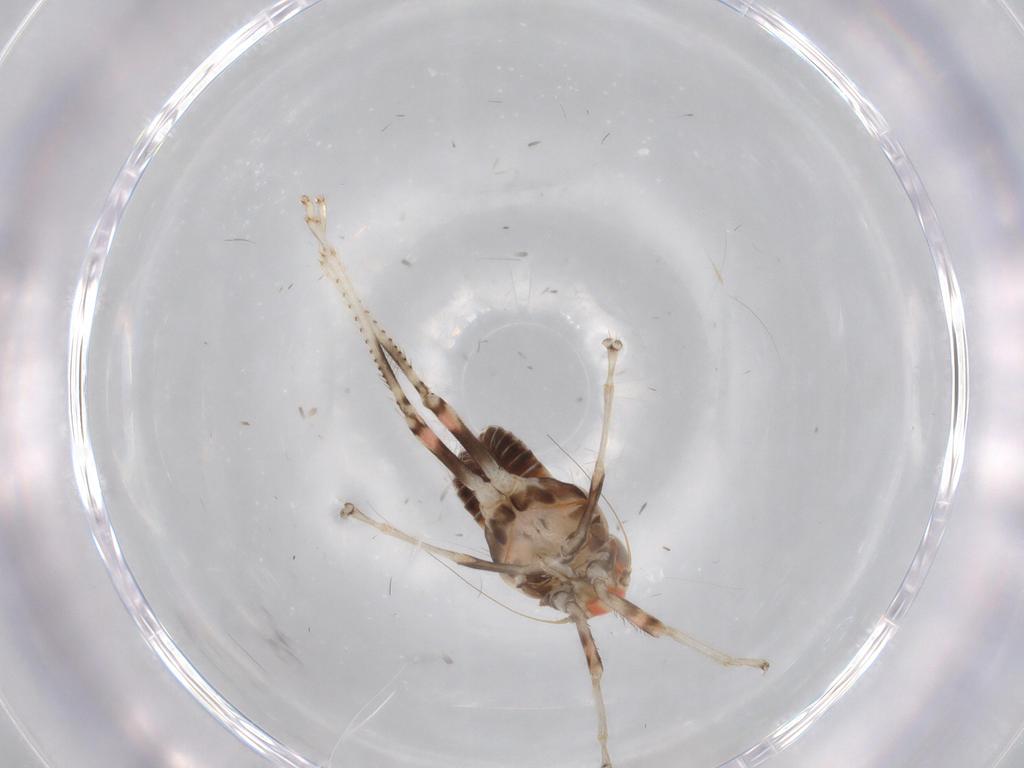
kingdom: Animalia
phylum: Arthropoda
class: Insecta
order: Hemiptera
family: Cicadellidae
